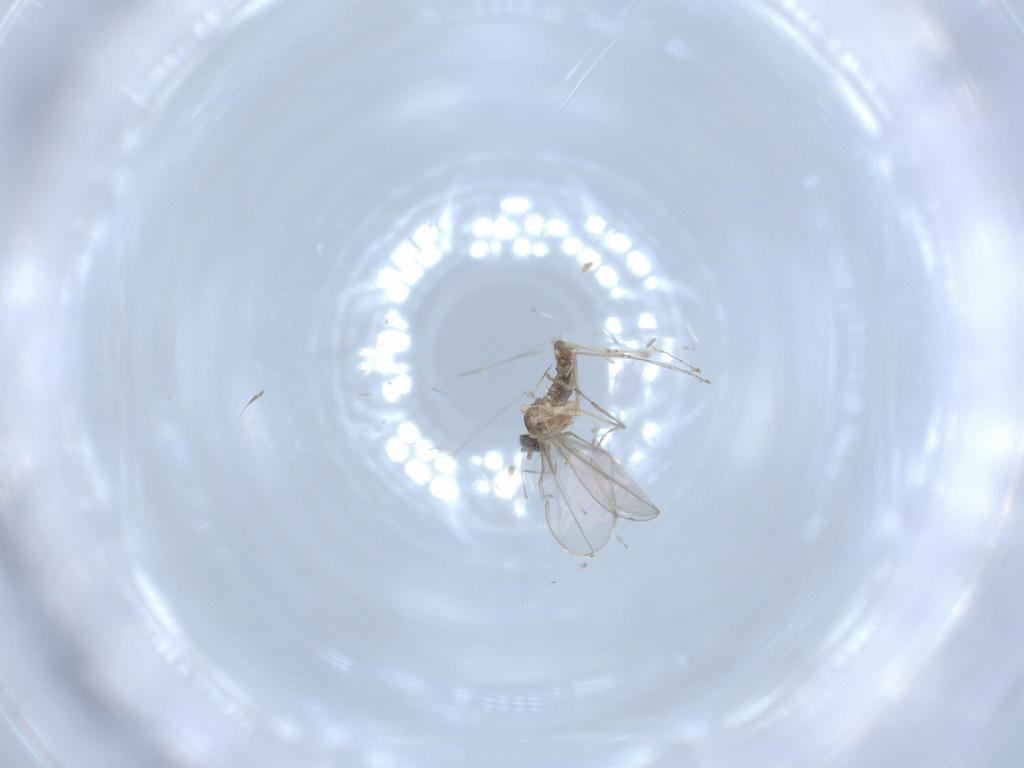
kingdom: Animalia
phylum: Arthropoda
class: Insecta
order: Diptera
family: Cecidomyiidae
